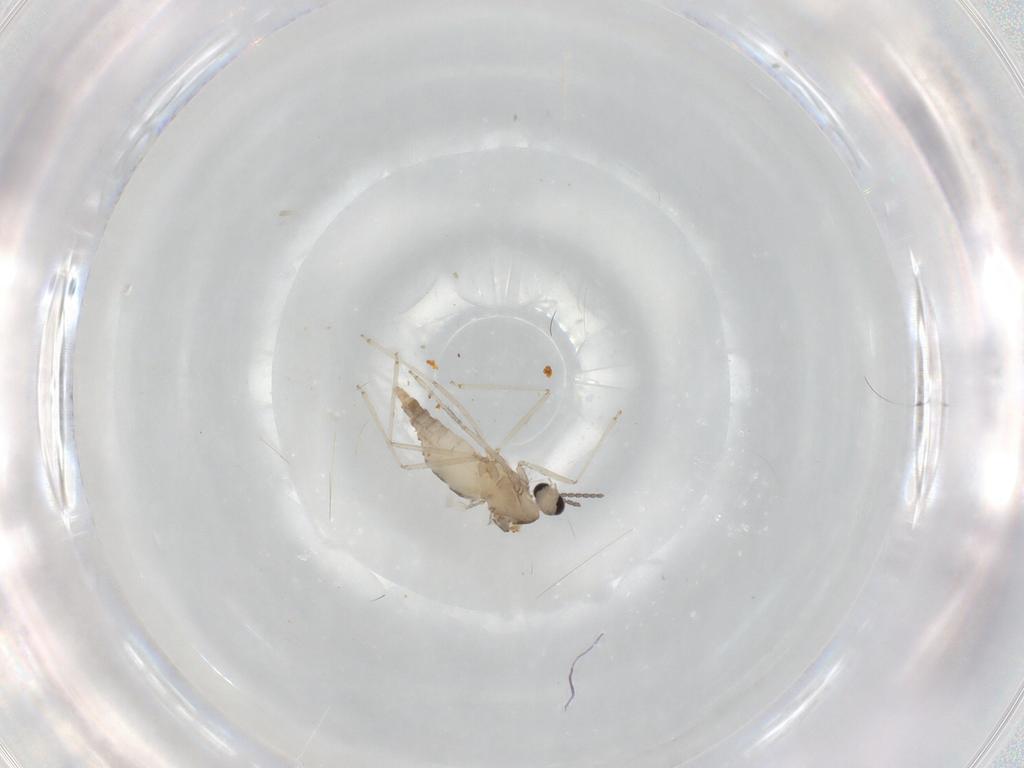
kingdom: Animalia
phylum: Arthropoda
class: Insecta
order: Diptera
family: Cecidomyiidae
